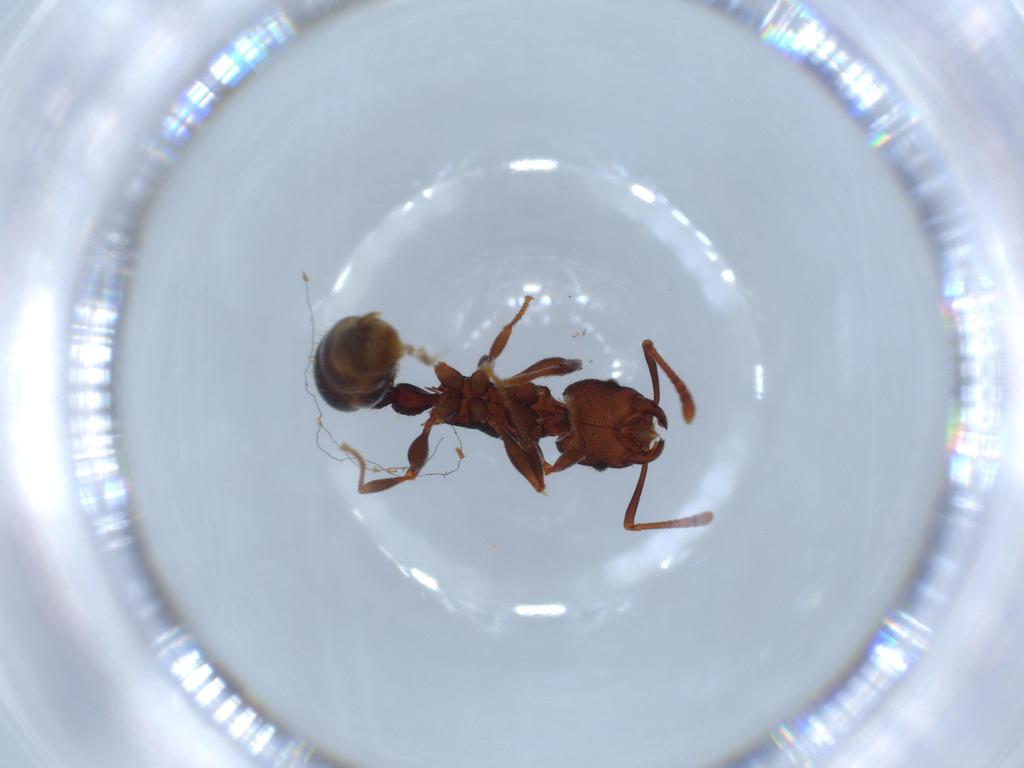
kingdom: Animalia
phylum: Arthropoda
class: Insecta
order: Hymenoptera
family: Formicidae
